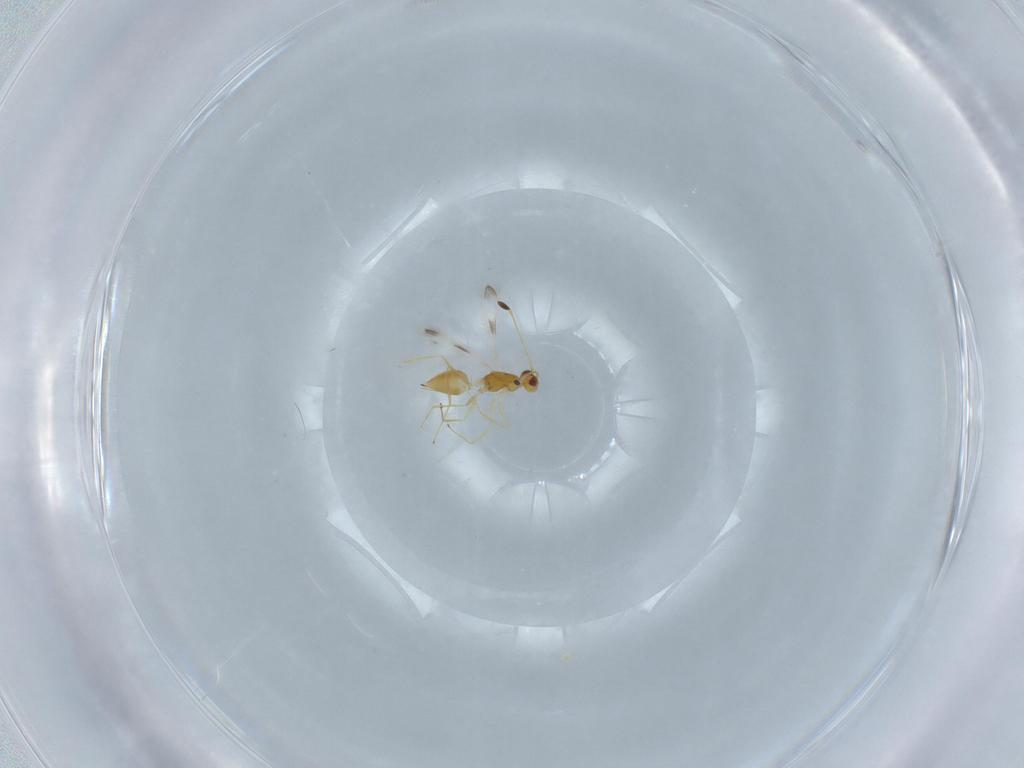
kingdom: Animalia
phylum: Arthropoda
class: Insecta
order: Hymenoptera
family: Mymaridae
